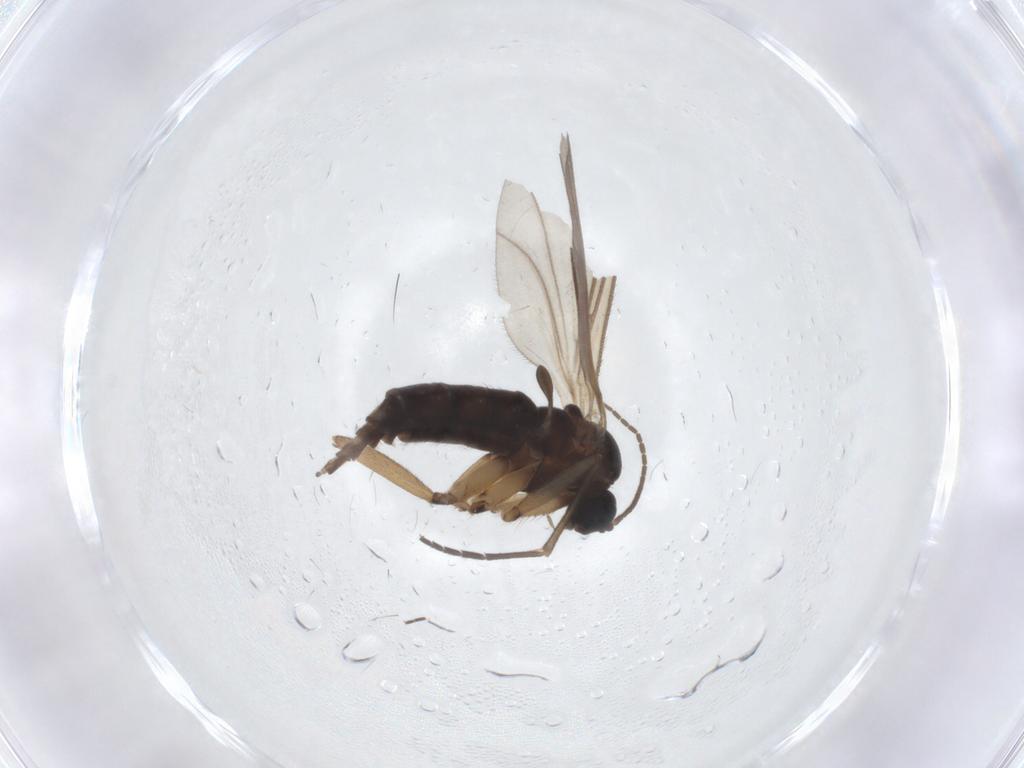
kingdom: Animalia
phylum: Arthropoda
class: Insecta
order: Diptera
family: Sciaridae
